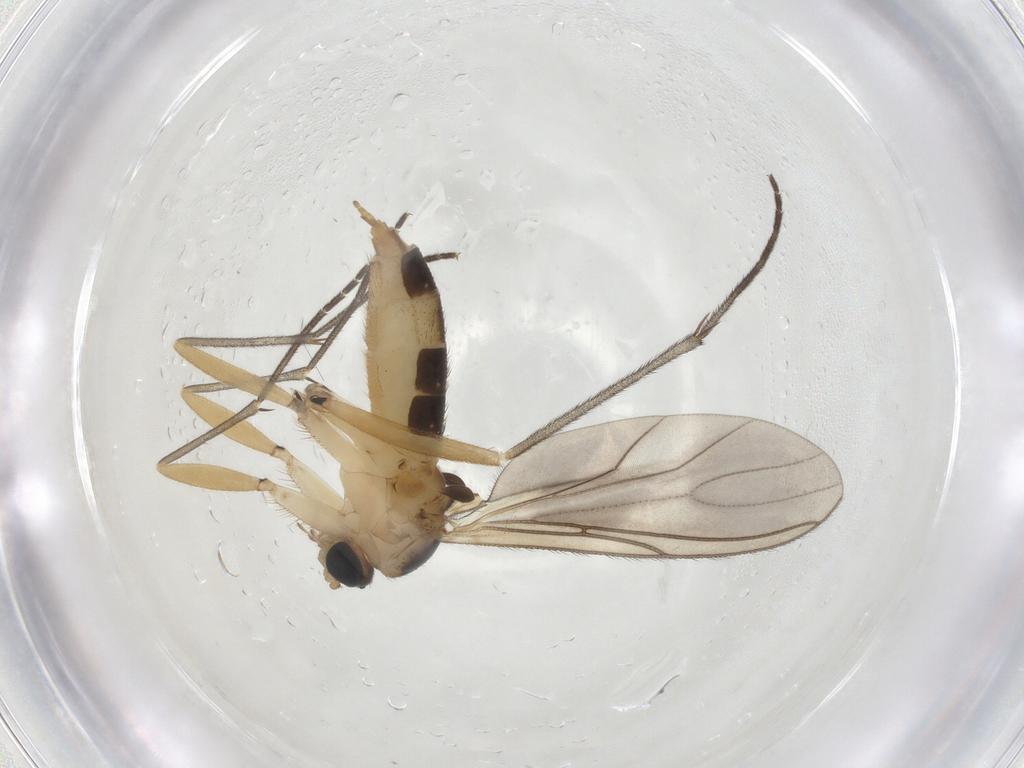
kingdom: Animalia
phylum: Arthropoda
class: Insecta
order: Diptera
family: Sciaridae
